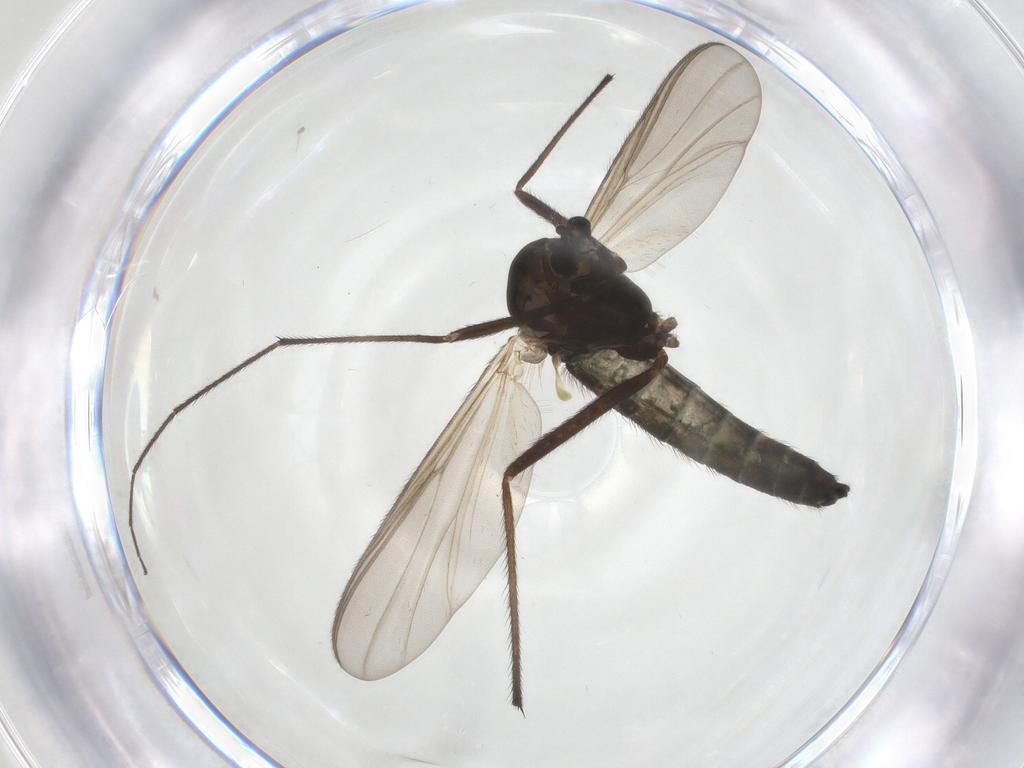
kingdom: Animalia
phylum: Arthropoda
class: Insecta
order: Diptera
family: Chironomidae
